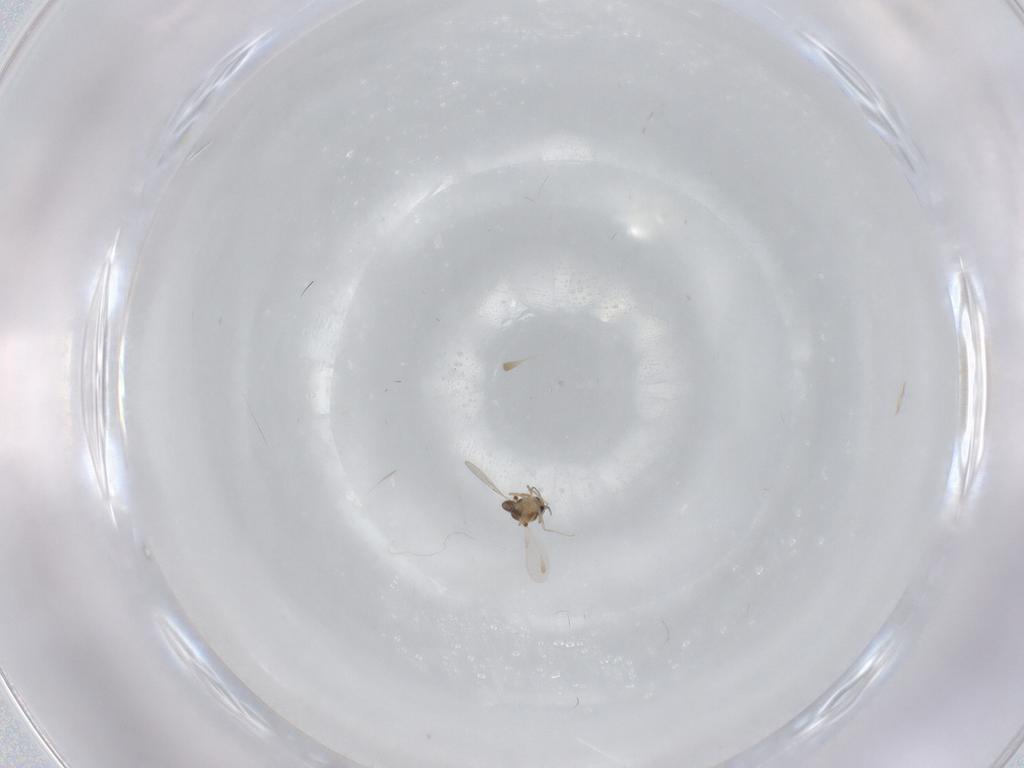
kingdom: Animalia
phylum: Arthropoda
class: Insecta
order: Diptera
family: Ceratopogonidae
